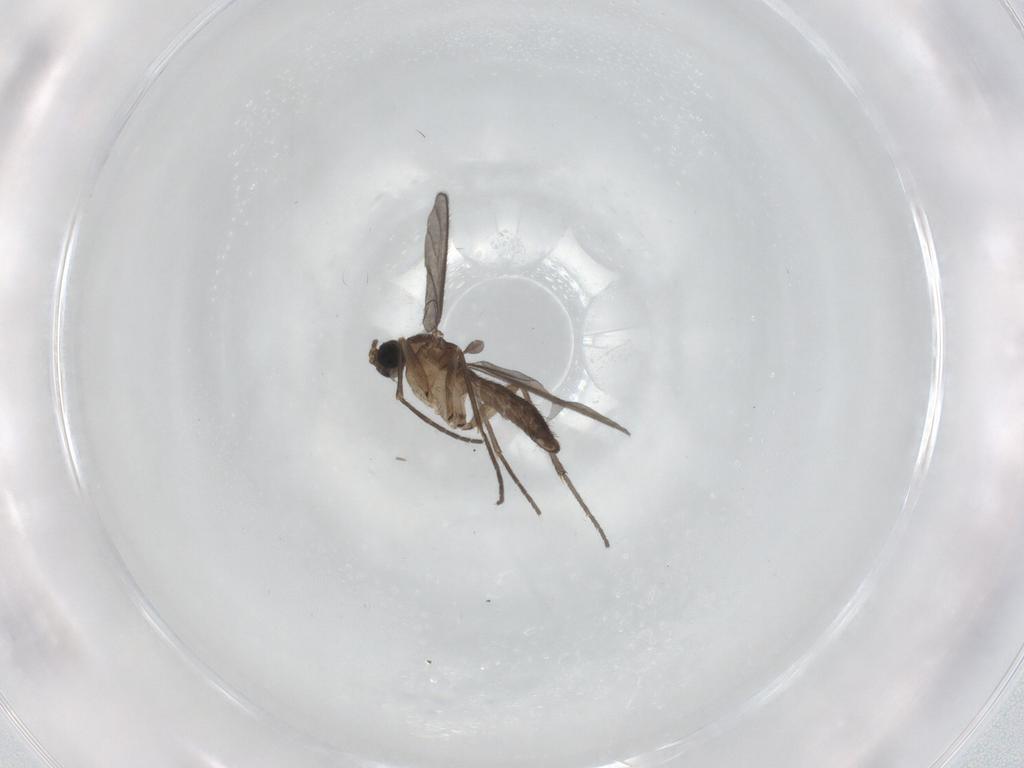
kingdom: Animalia
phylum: Arthropoda
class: Insecta
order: Diptera
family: Sciaridae
